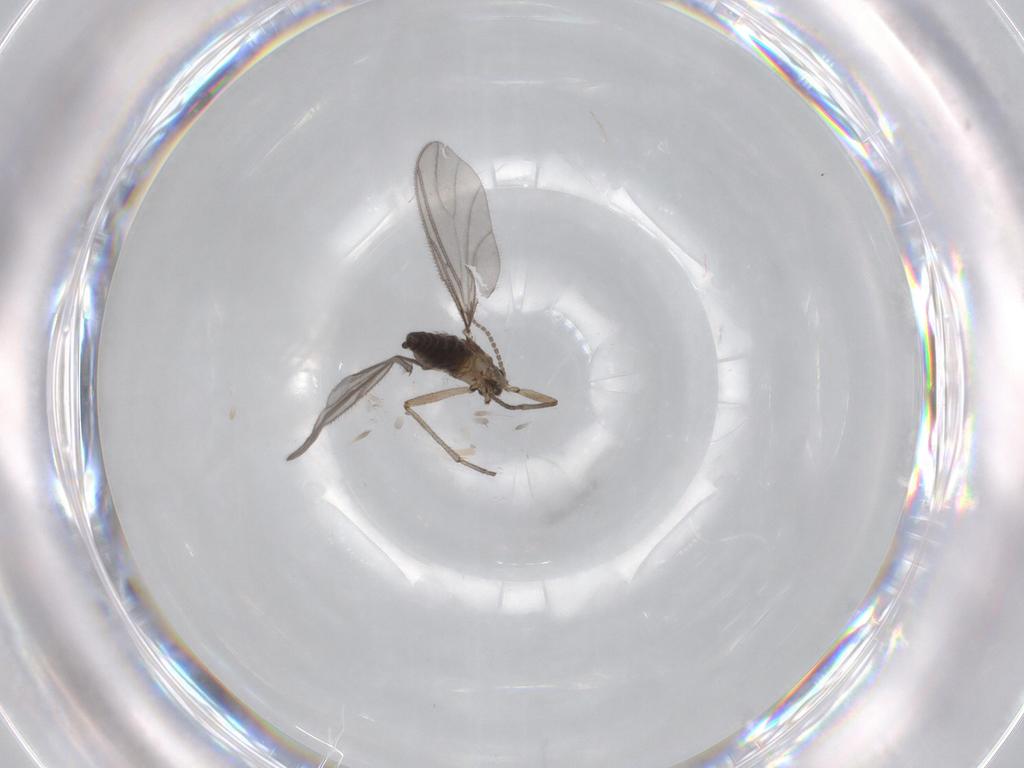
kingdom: Animalia
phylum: Arthropoda
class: Insecta
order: Diptera
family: Sciaridae
